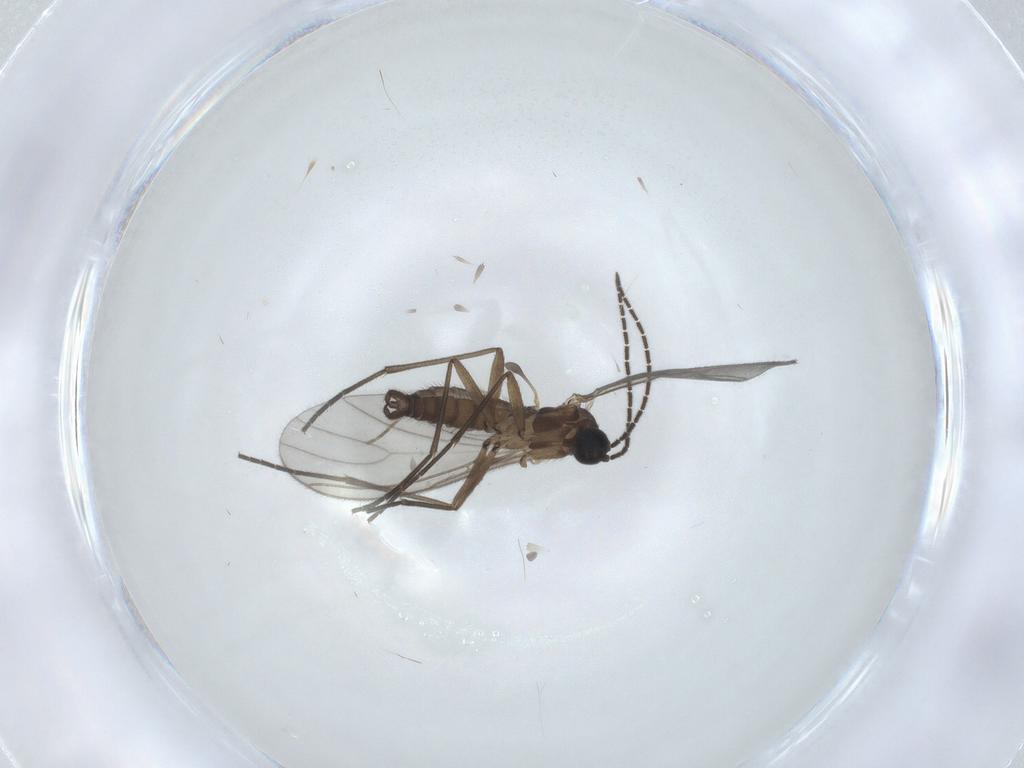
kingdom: Animalia
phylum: Arthropoda
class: Insecta
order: Diptera
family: Sciaridae
